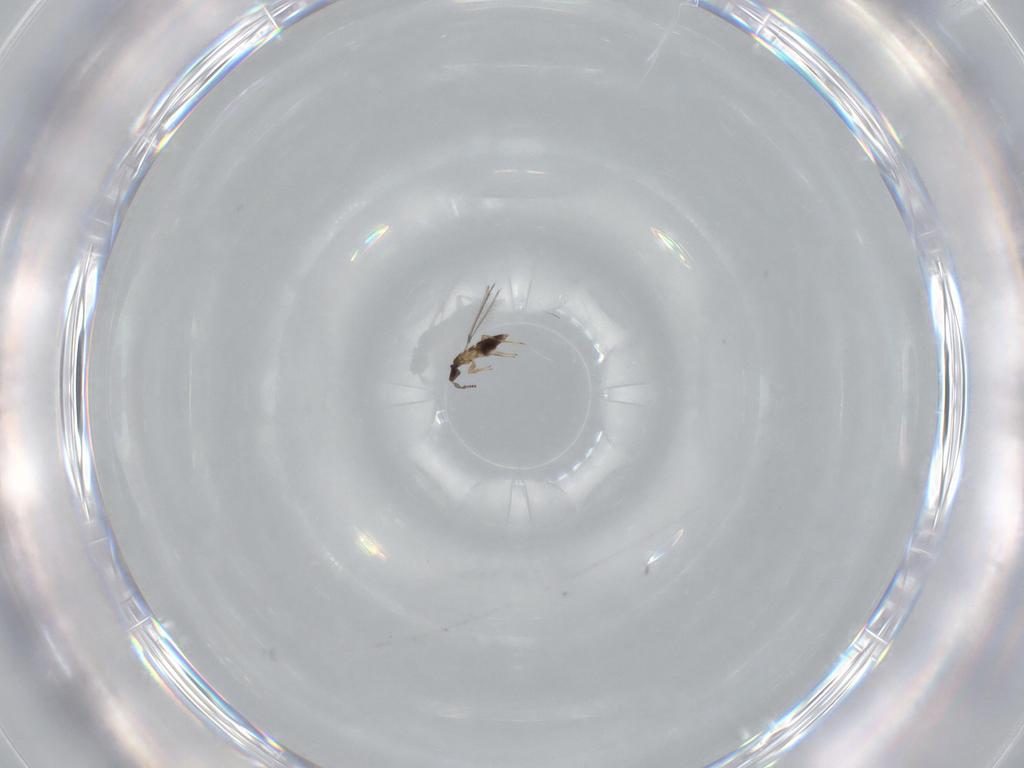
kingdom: Animalia
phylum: Arthropoda
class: Insecta
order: Hymenoptera
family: Mymaridae
